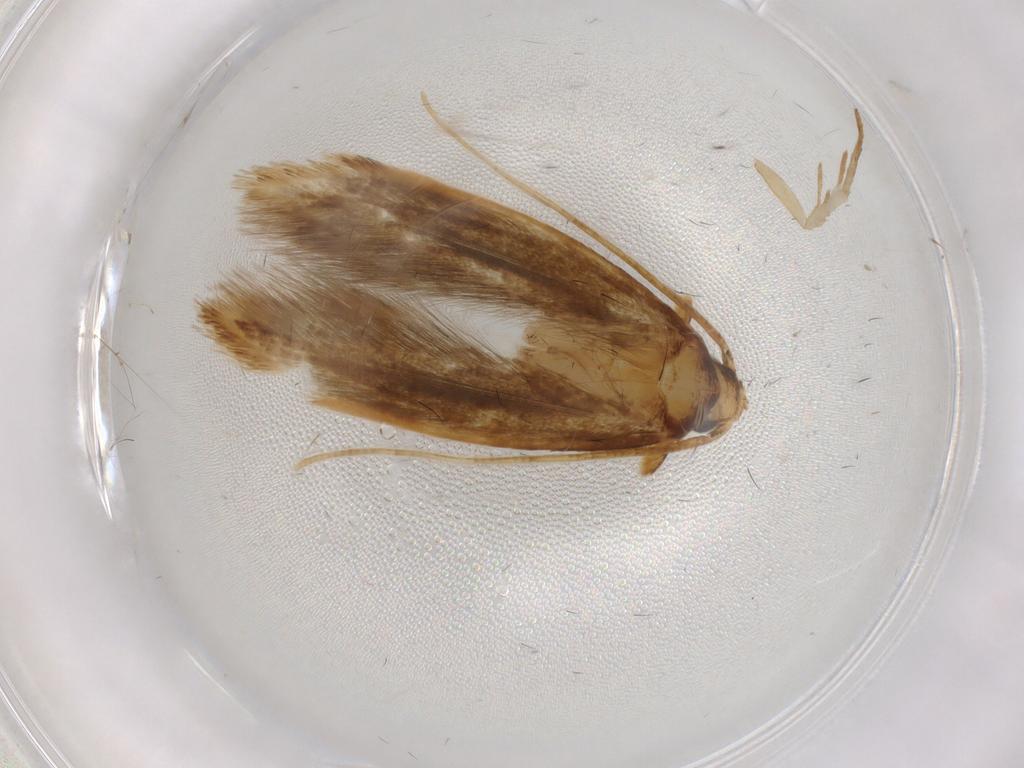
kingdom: Animalia
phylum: Arthropoda
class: Insecta
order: Lepidoptera
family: Tineidae
